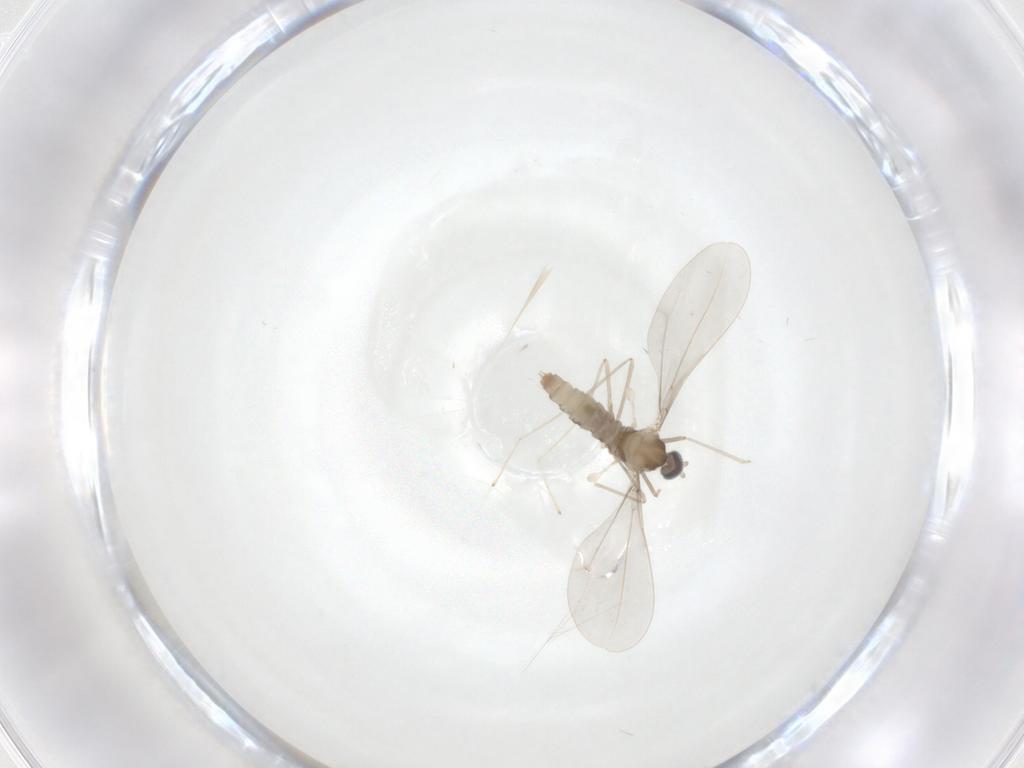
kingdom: Animalia
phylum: Arthropoda
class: Insecta
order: Diptera
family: Cecidomyiidae
